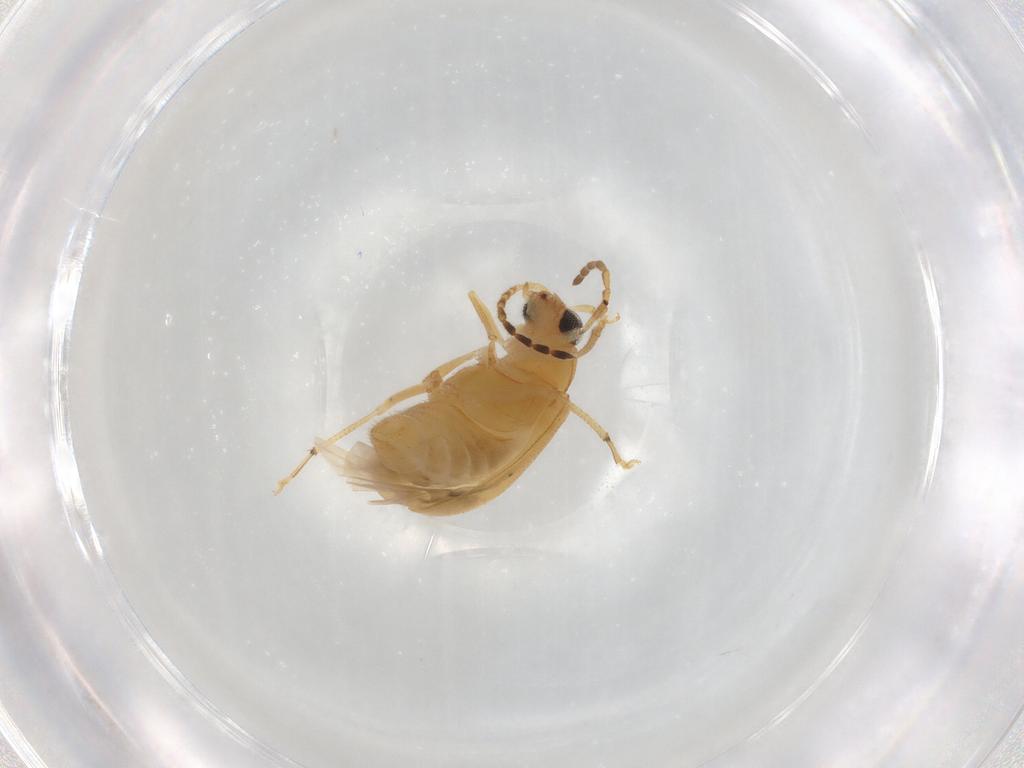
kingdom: Animalia
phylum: Arthropoda
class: Insecta
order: Coleoptera
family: Chrysomelidae
